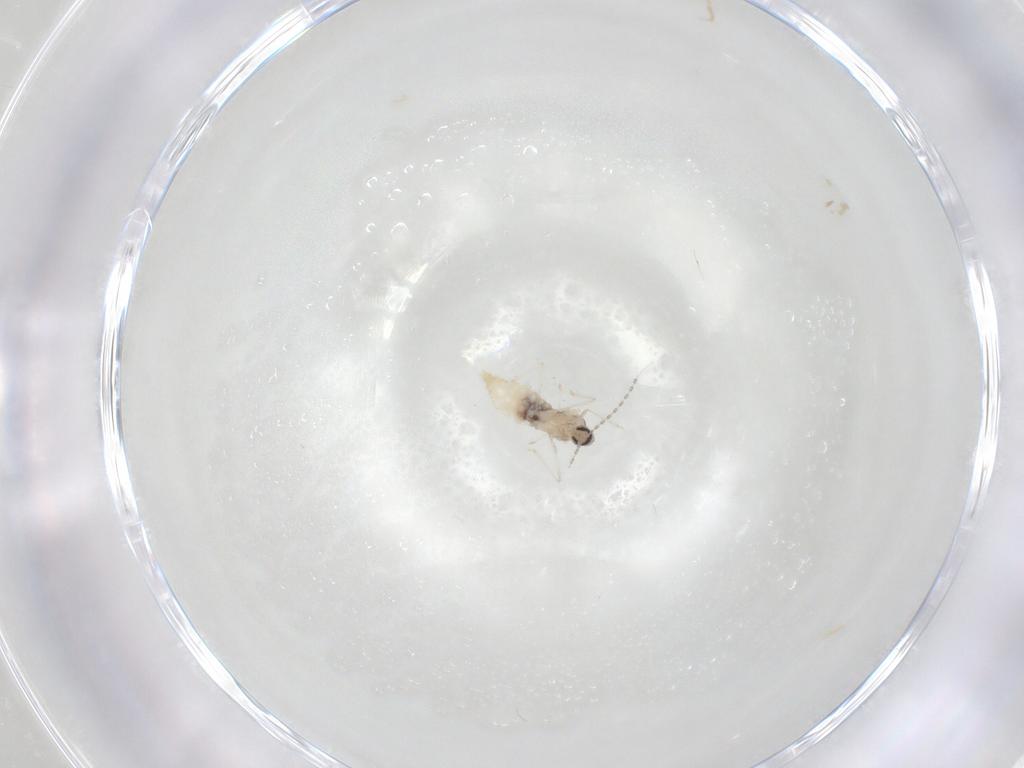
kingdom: Animalia
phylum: Arthropoda
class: Insecta
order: Diptera
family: Cecidomyiidae
